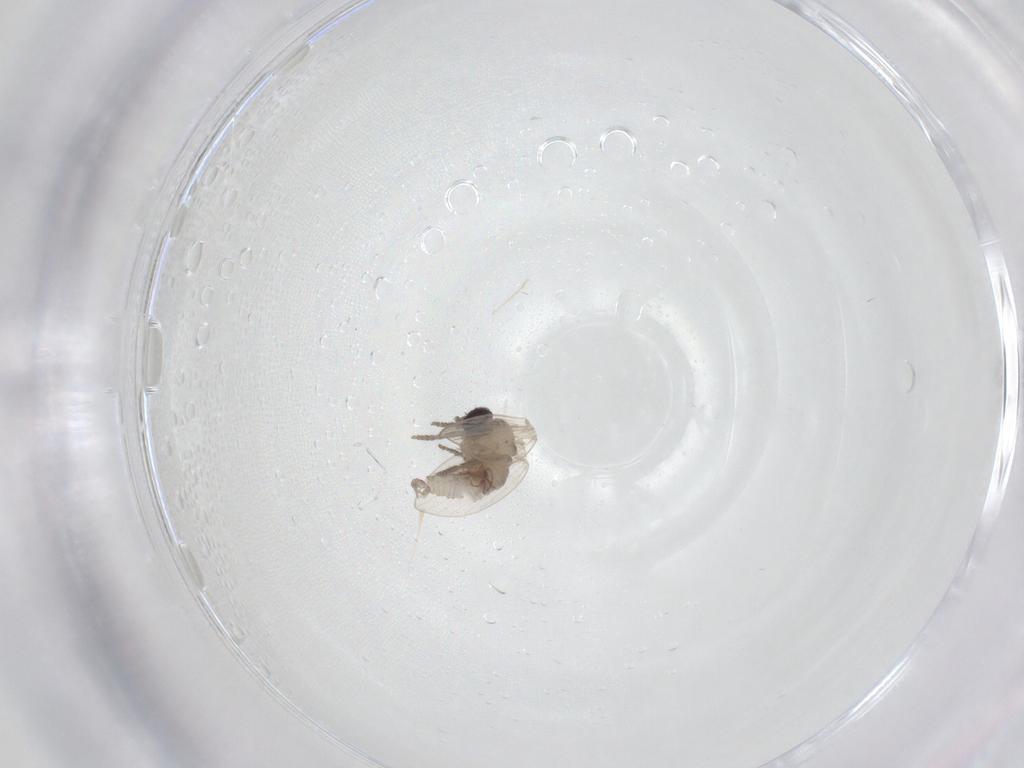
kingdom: Animalia
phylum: Arthropoda
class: Insecta
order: Diptera
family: Psychodidae
